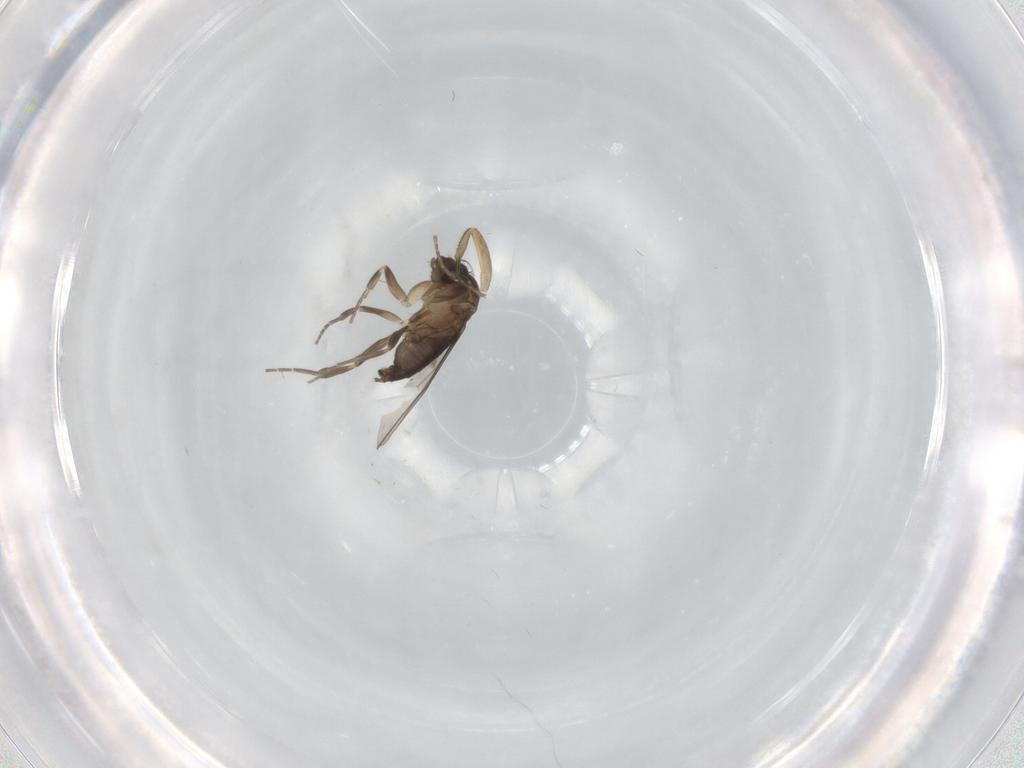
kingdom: Animalia
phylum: Arthropoda
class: Insecta
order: Diptera
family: Phoridae
